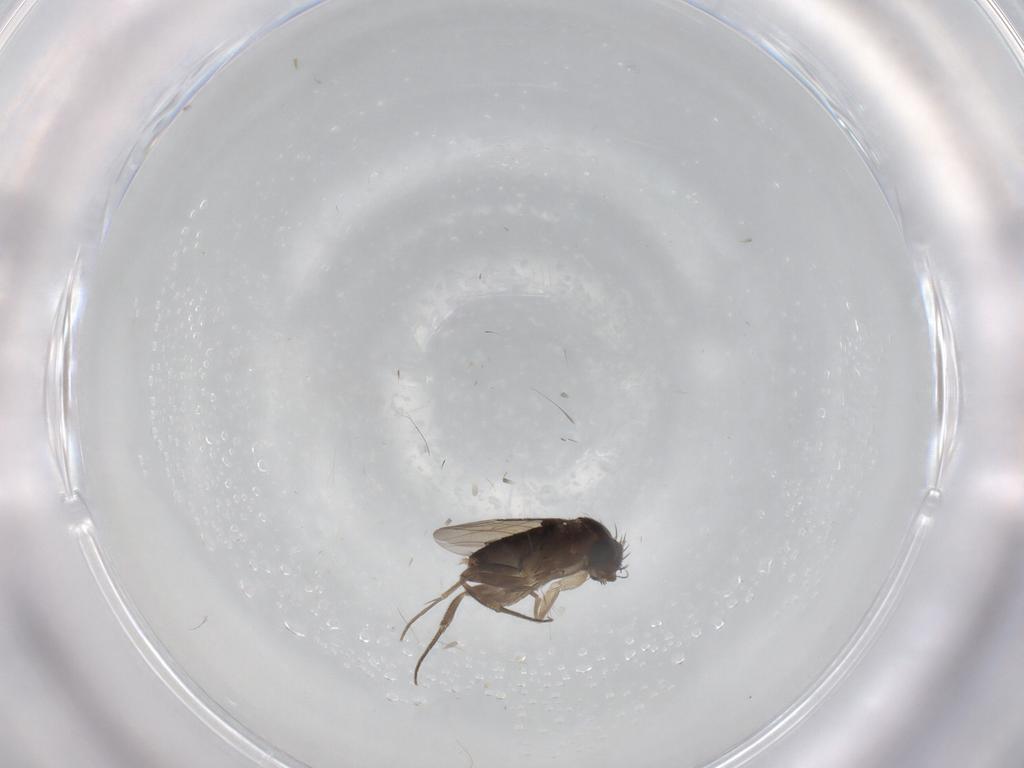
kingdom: Animalia
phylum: Arthropoda
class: Insecta
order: Diptera
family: Phoridae
